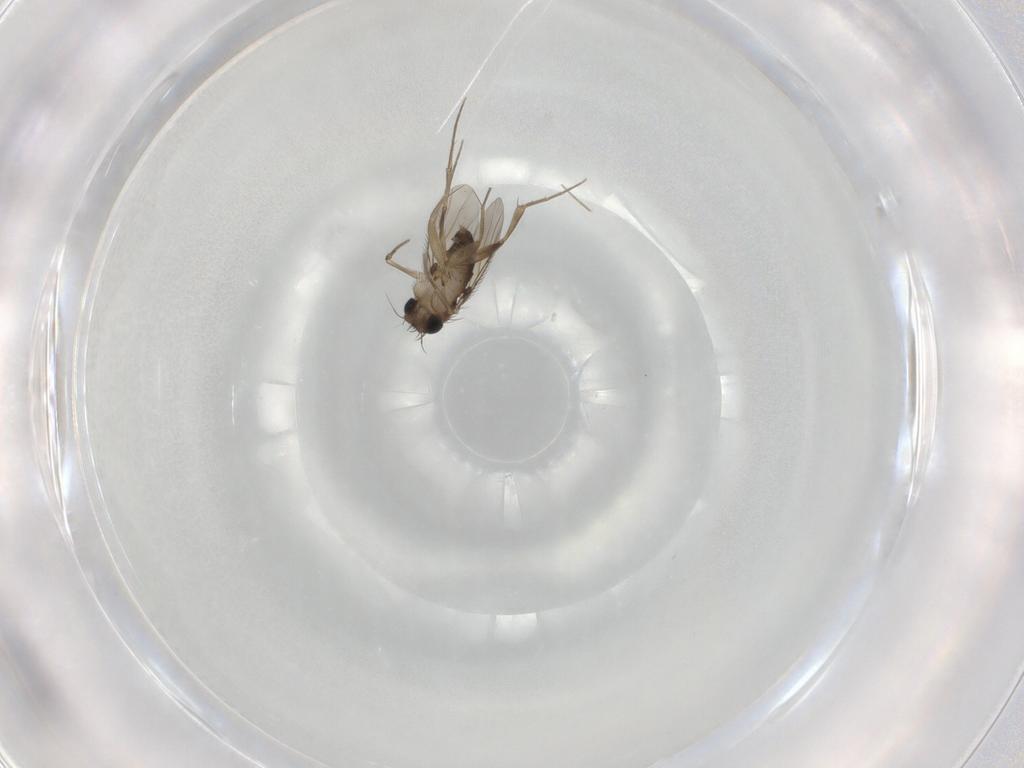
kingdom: Animalia
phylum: Arthropoda
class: Insecta
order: Diptera
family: Phoridae
